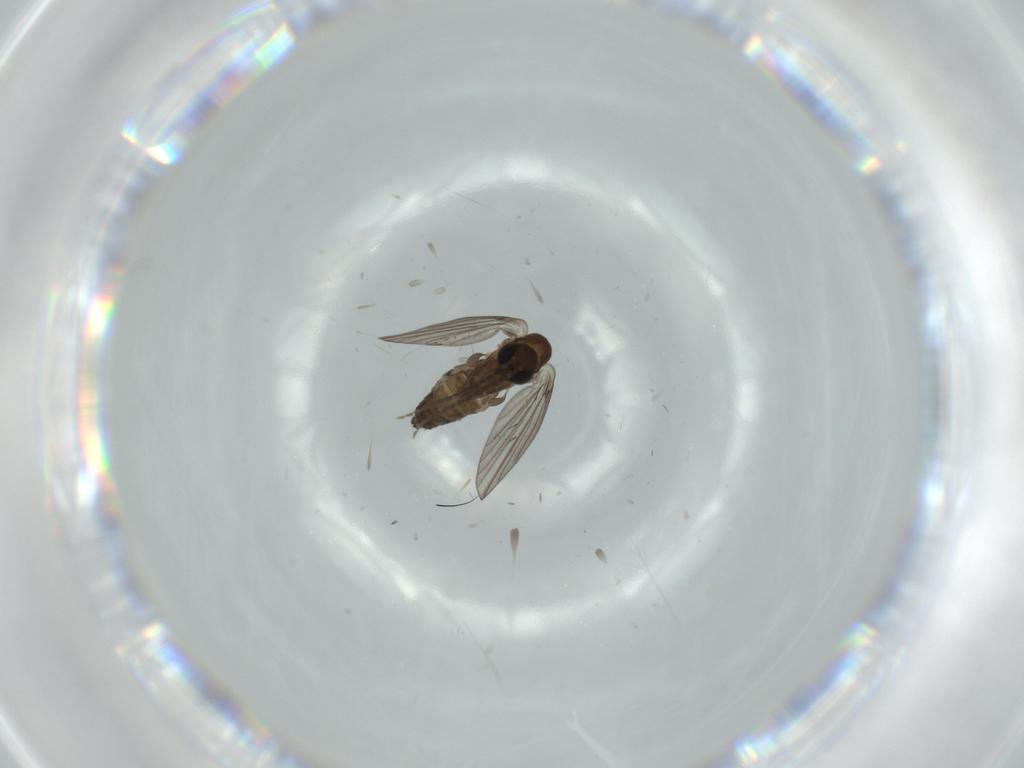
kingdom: Animalia
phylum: Arthropoda
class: Insecta
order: Diptera
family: Psychodidae
